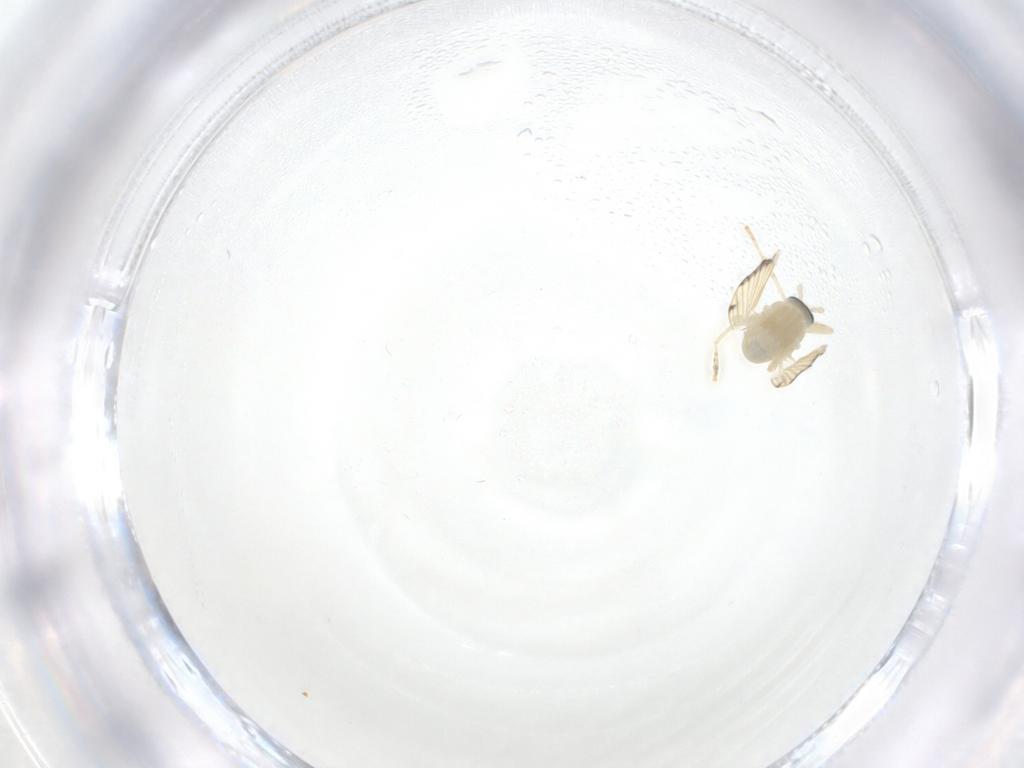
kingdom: Animalia
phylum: Arthropoda
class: Insecta
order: Diptera
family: Psychodidae
